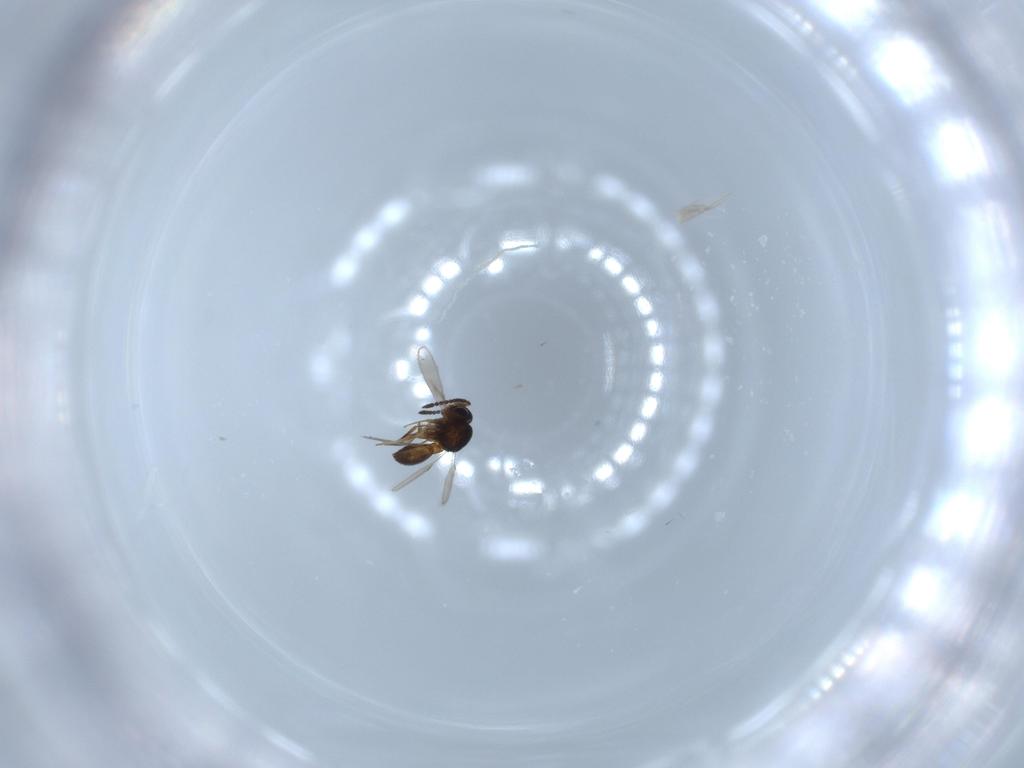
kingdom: Animalia
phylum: Arthropoda
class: Insecta
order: Hymenoptera
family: Scelionidae
